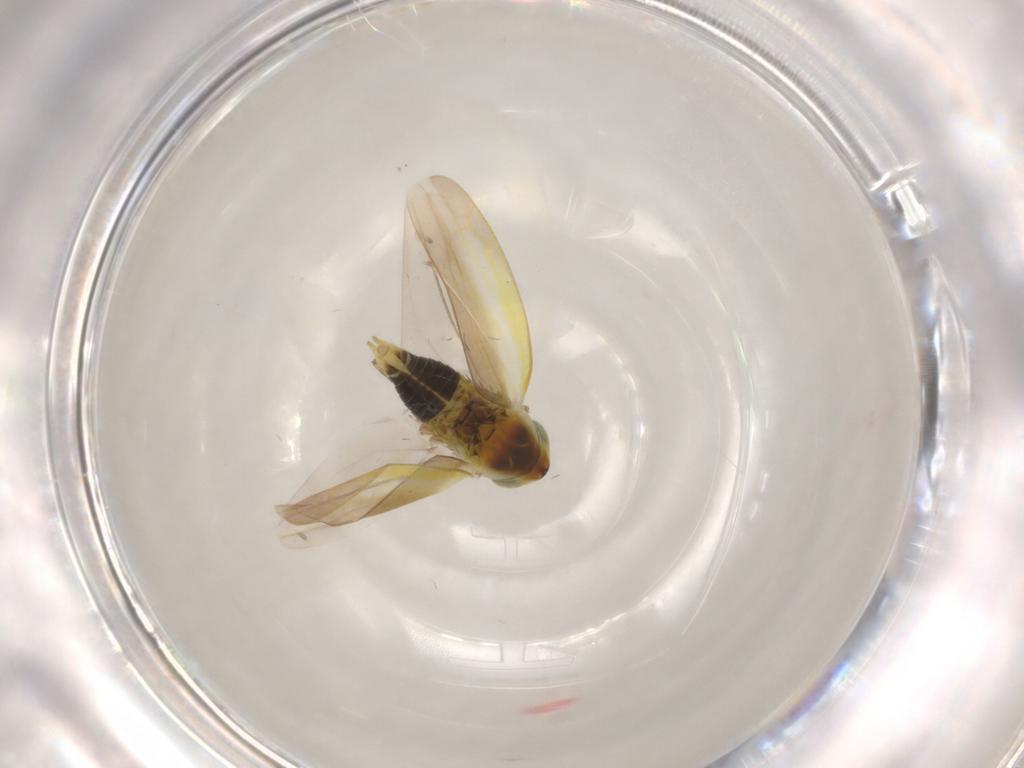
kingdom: Animalia
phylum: Arthropoda
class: Insecta
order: Hemiptera
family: Cicadellidae
